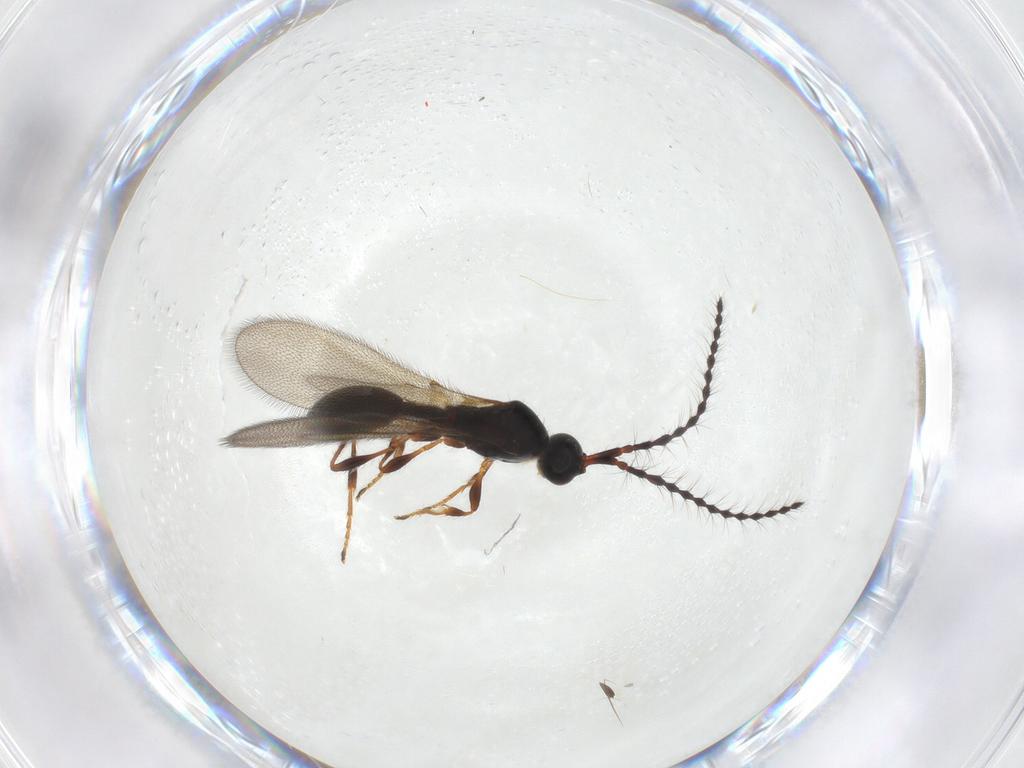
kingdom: Animalia
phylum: Arthropoda
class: Insecta
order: Hymenoptera
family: Diapriidae
